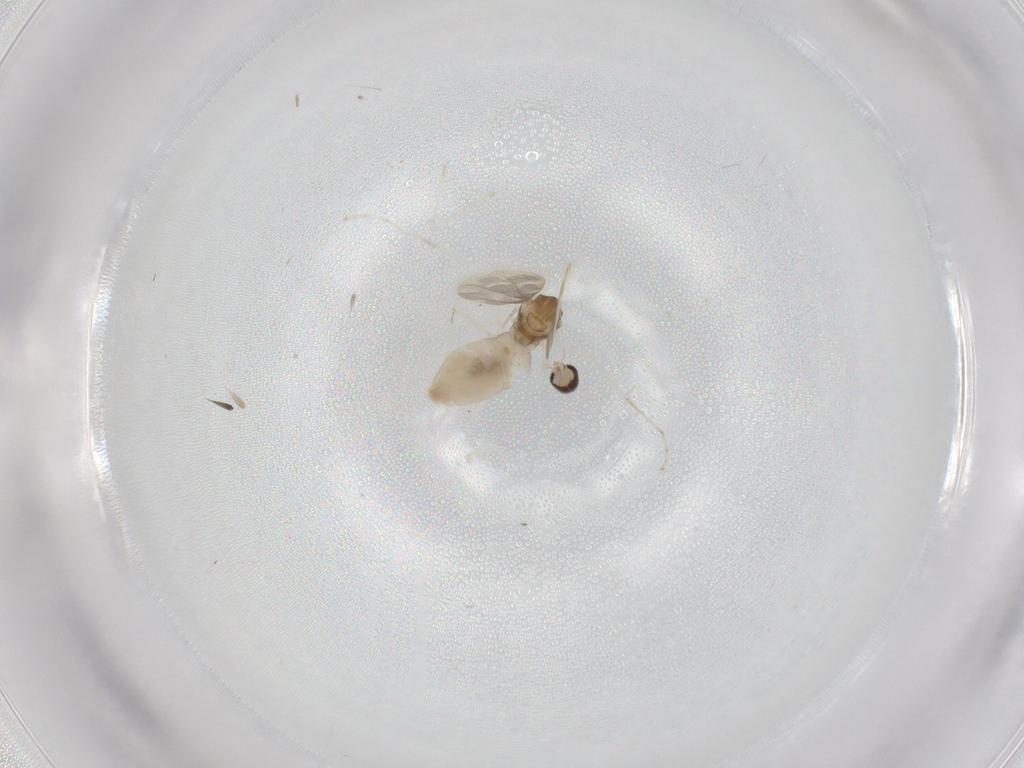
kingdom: Animalia
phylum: Arthropoda
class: Insecta
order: Diptera
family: Cecidomyiidae
